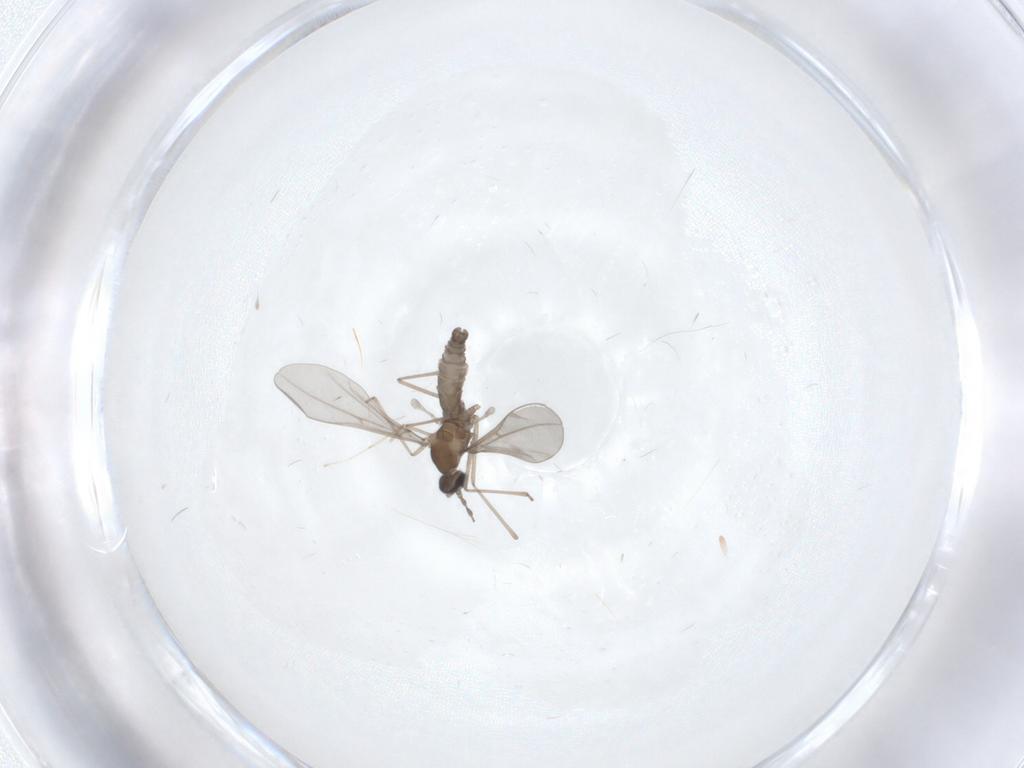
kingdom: Animalia
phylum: Arthropoda
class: Insecta
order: Diptera
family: Cecidomyiidae
